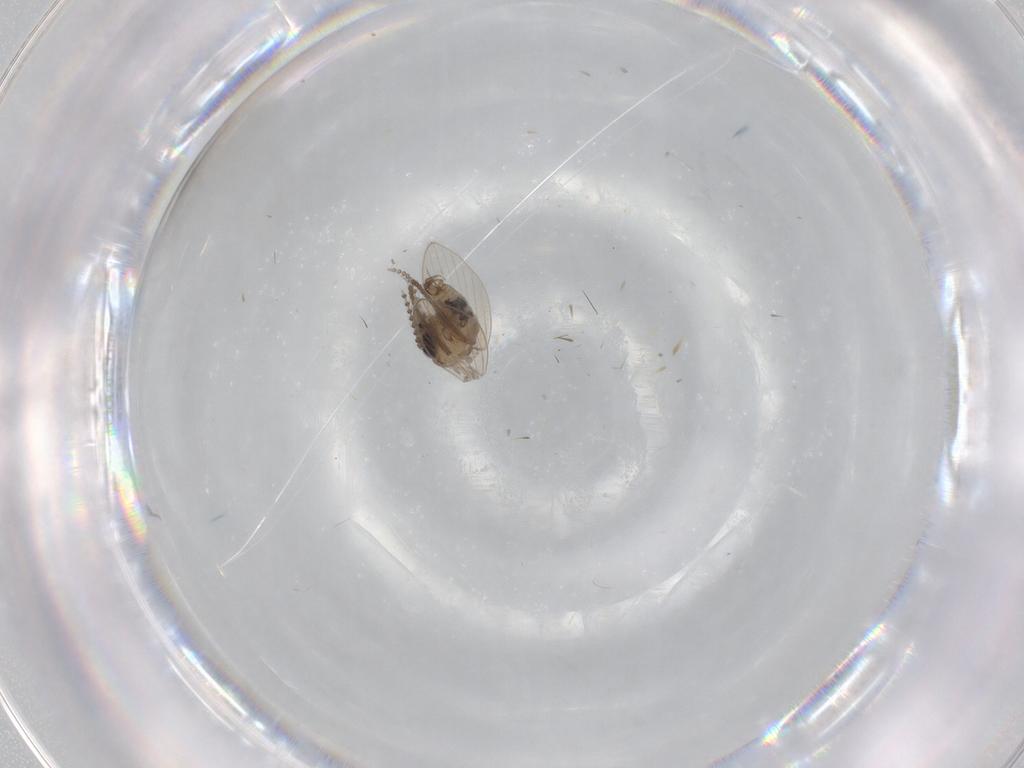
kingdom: Animalia
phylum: Arthropoda
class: Insecta
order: Diptera
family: Psychodidae
